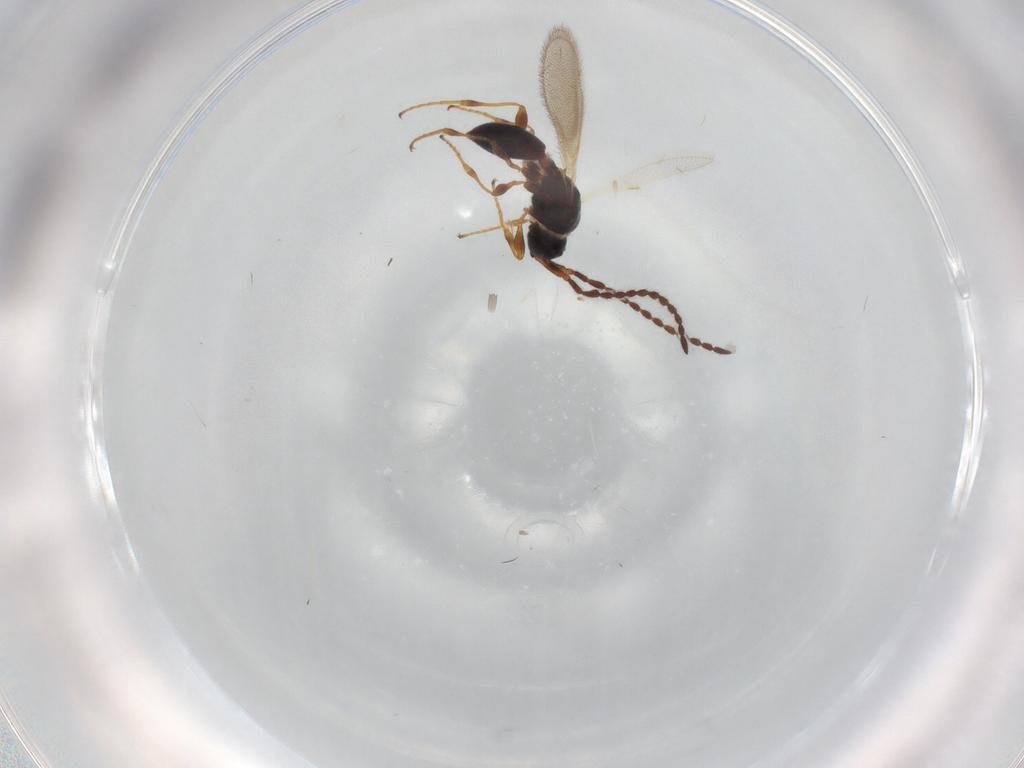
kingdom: Animalia
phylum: Arthropoda
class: Insecta
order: Hymenoptera
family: Diapriidae
